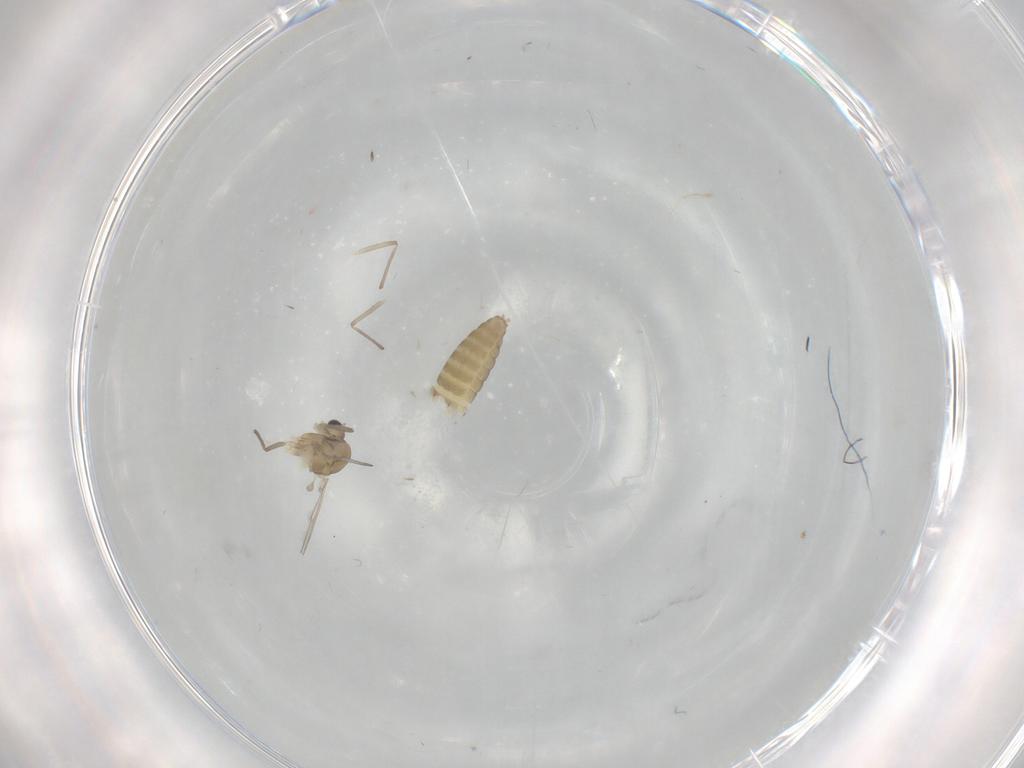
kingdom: Animalia
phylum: Arthropoda
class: Insecta
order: Diptera
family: Chironomidae
